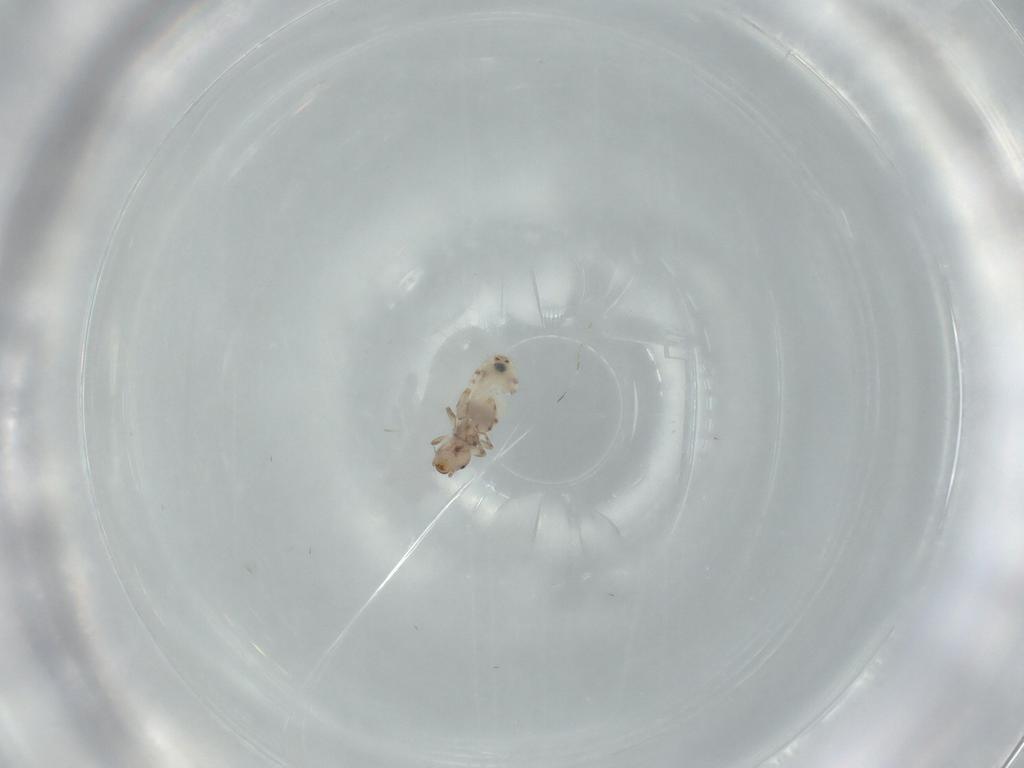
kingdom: Animalia
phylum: Arthropoda
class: Insecta
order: Psocodea
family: Liposcelididae
